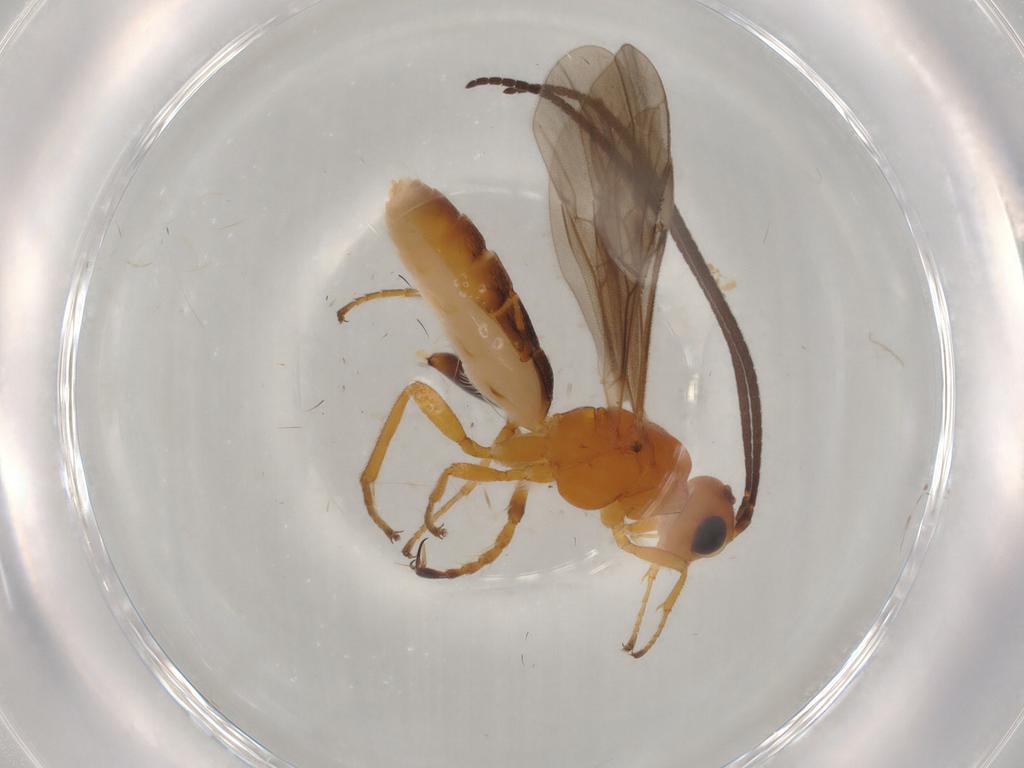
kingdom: Animalia
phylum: Arthropoda
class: Insecta
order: Hymenoptera
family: Braconidae
